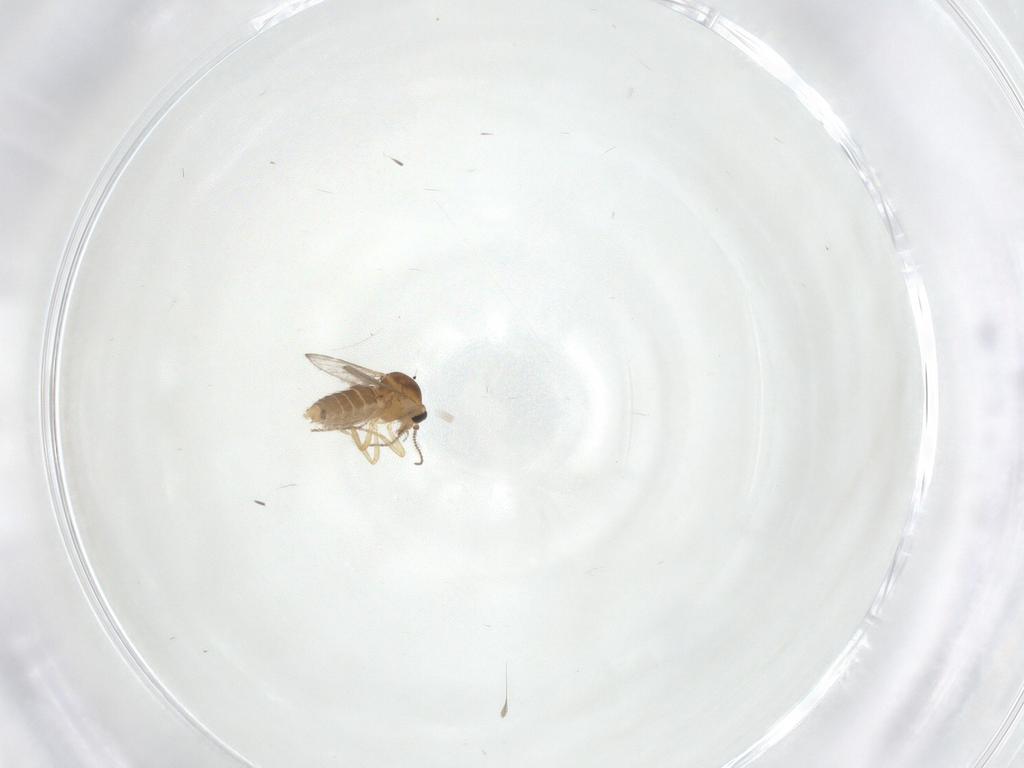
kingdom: Animalia
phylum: Arthropoda
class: Insecta
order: Diptera
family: Ceratopogonidae
